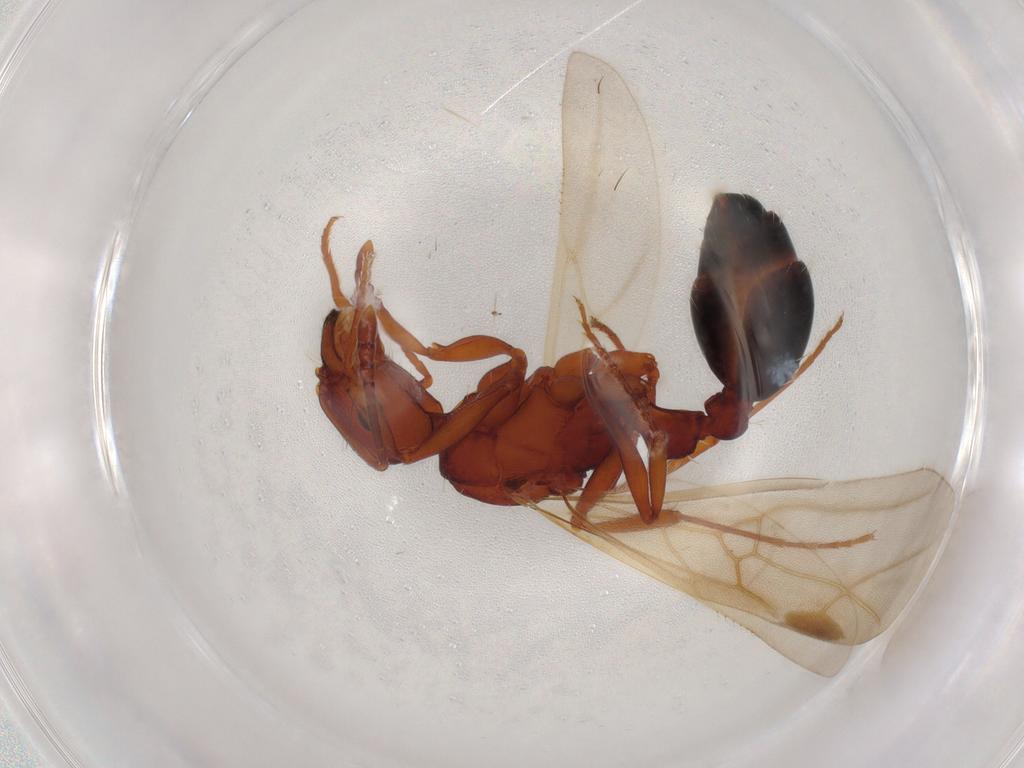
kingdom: Animalia
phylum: Arthropoda
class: Insecta
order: Hymenoptera
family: Formicidae
